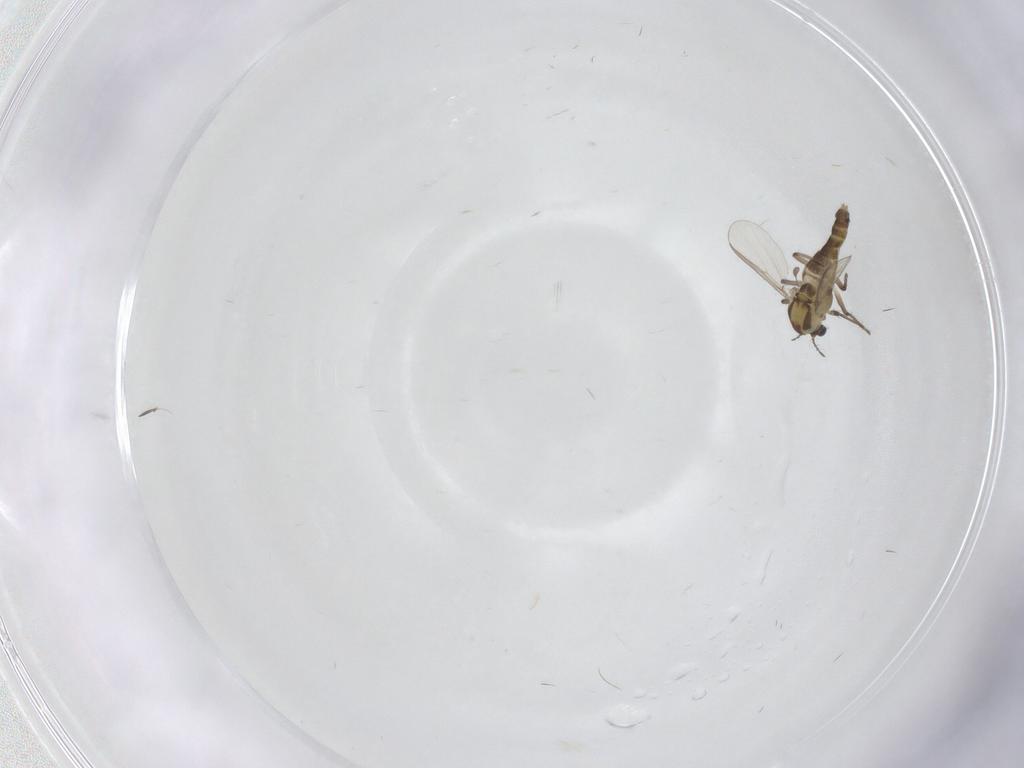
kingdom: Animalia
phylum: Arthropoda
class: Insecta
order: Diptera
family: Chironomidae
